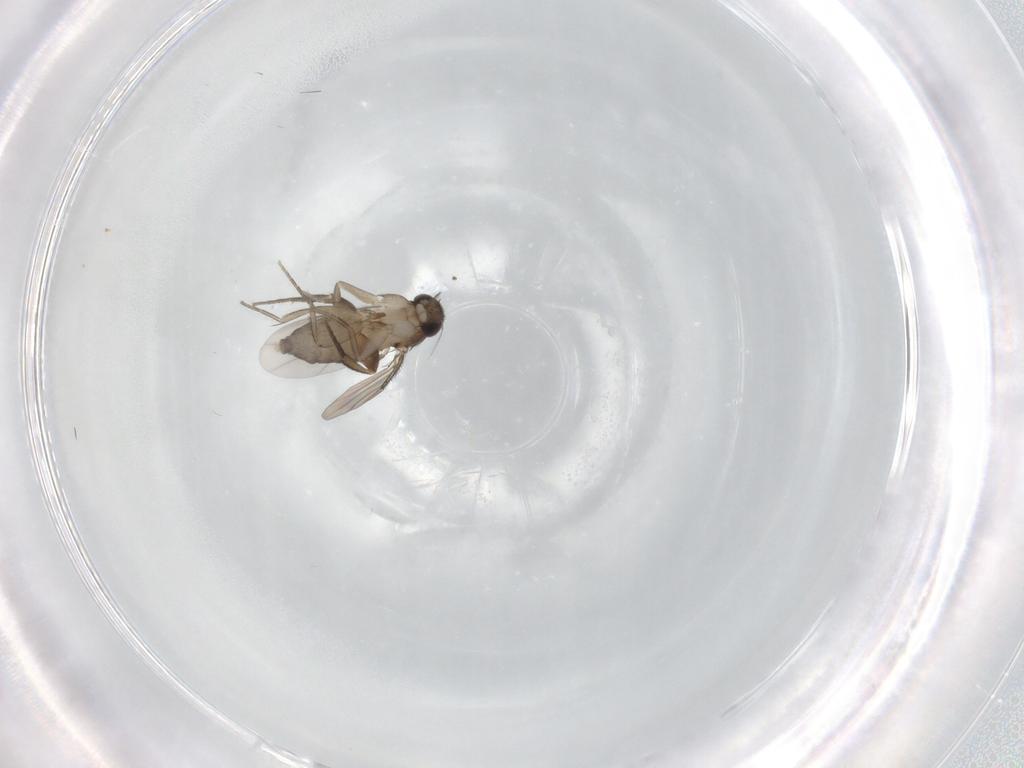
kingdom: Animalia
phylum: Arthropoda
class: Insecta
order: Diptera
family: Phoridae
